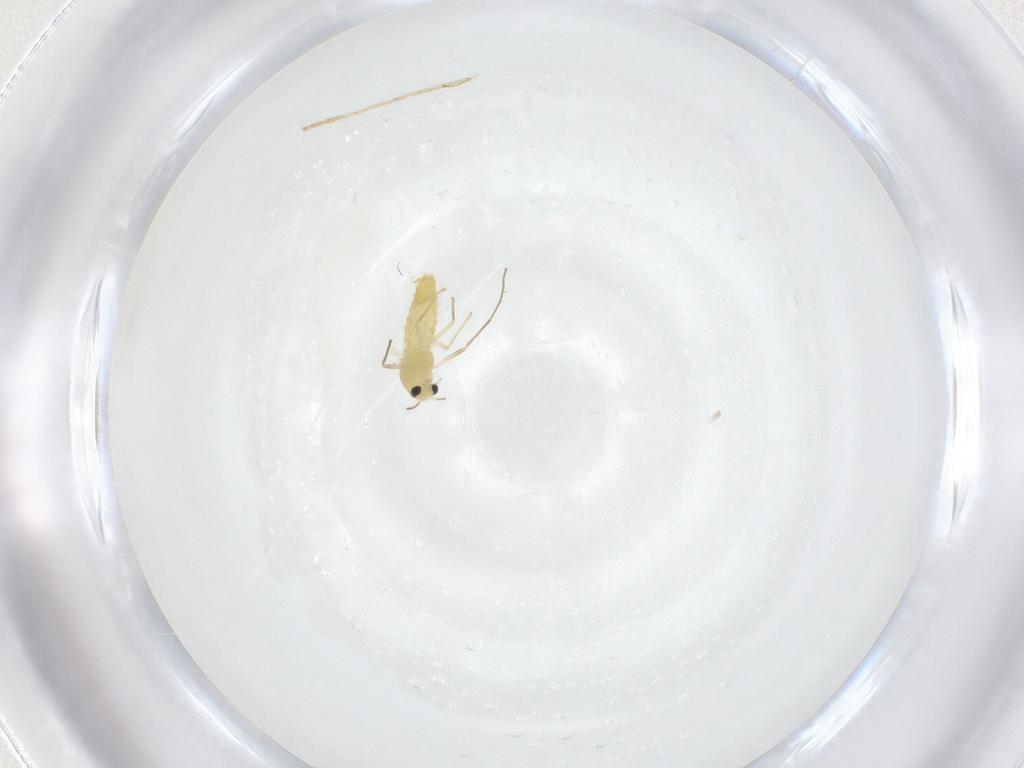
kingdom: Animalia
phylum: Arthropoda
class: Insecta
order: Diptera
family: Chironomidae
